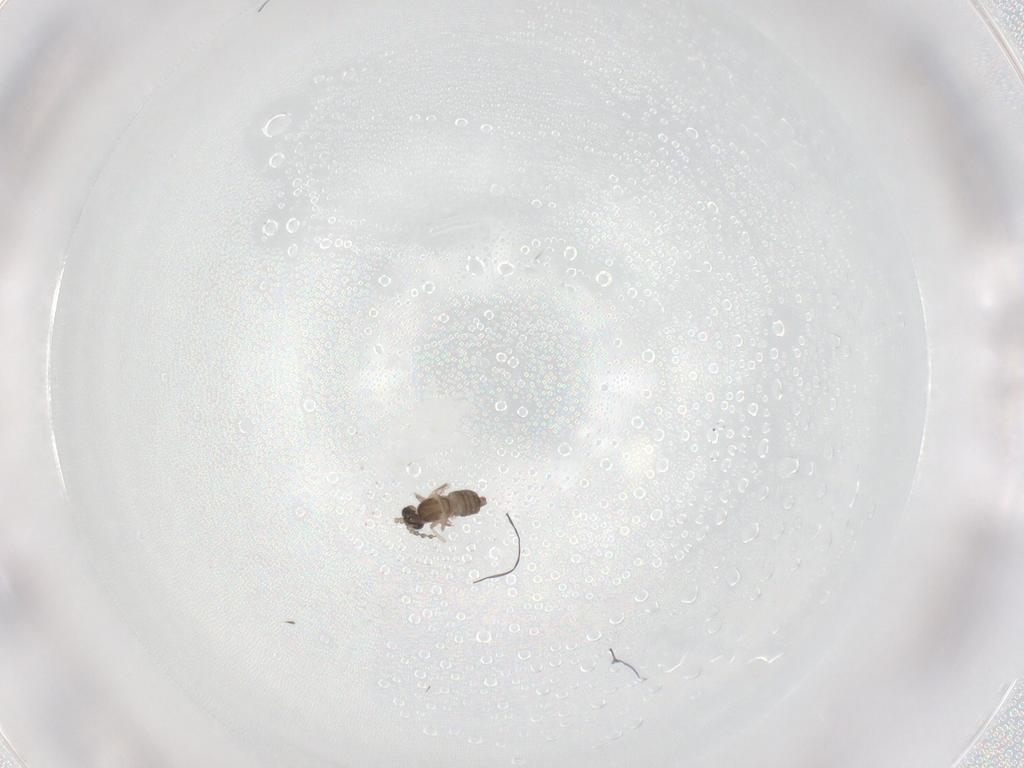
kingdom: Animalia
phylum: Arthropoda
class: Insecta
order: Diptera
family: Cecidomyiidae
